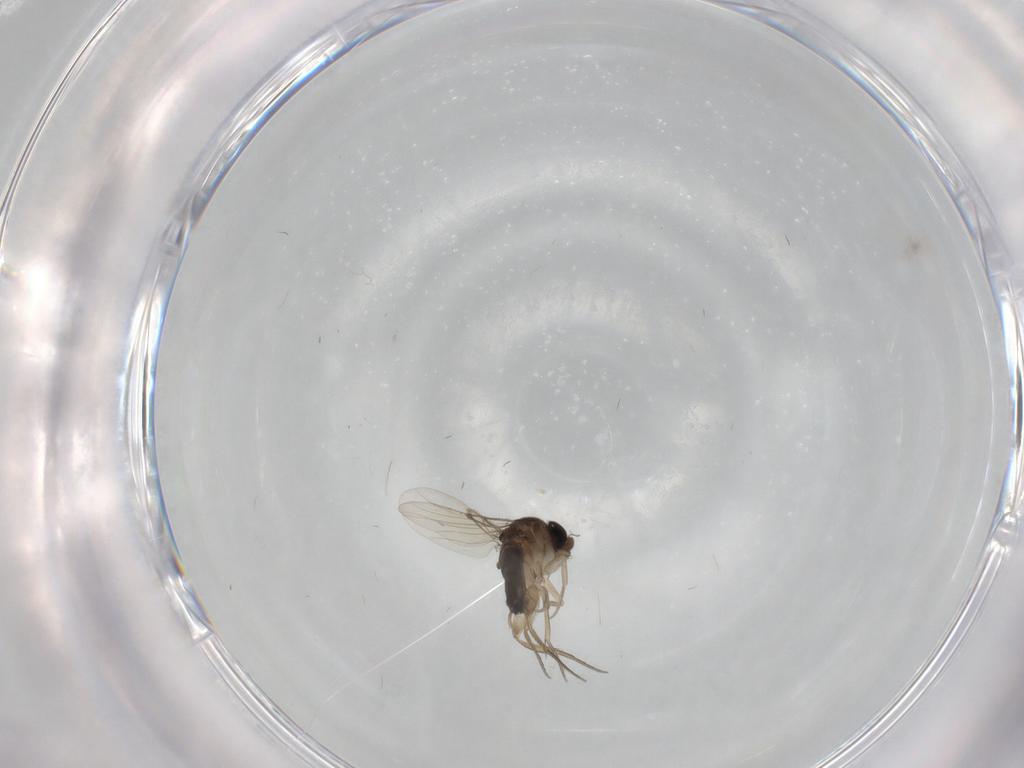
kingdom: Animalia
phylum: Arthropoda
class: Insecta
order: Diptera
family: Phoridae
